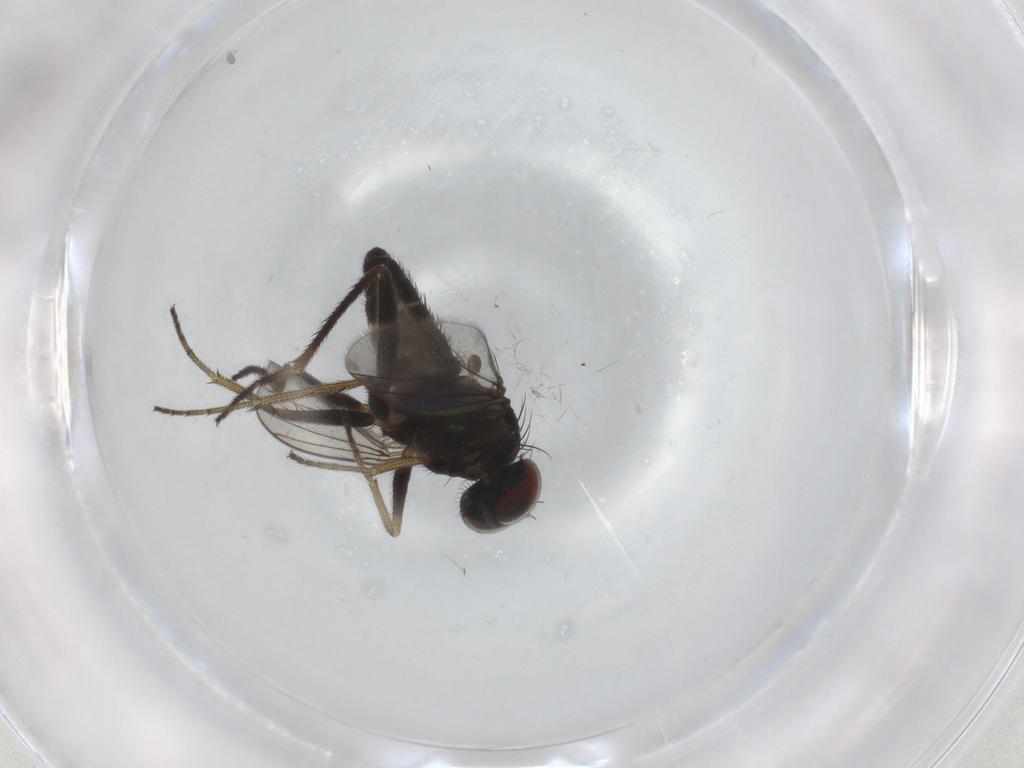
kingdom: Animalia
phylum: Arthropoda
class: Insecta
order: Diptera
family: Dolichopodidae
